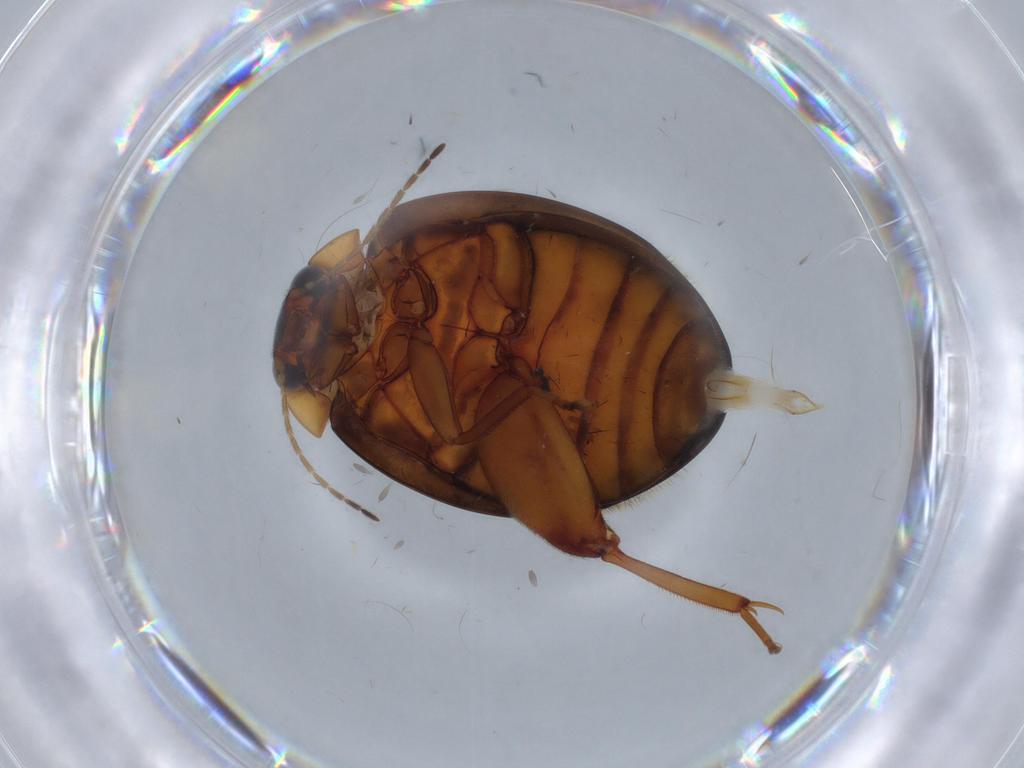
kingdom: Animalia
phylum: Arthropoda
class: Insecta
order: Coleoptera
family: Scirtidae
